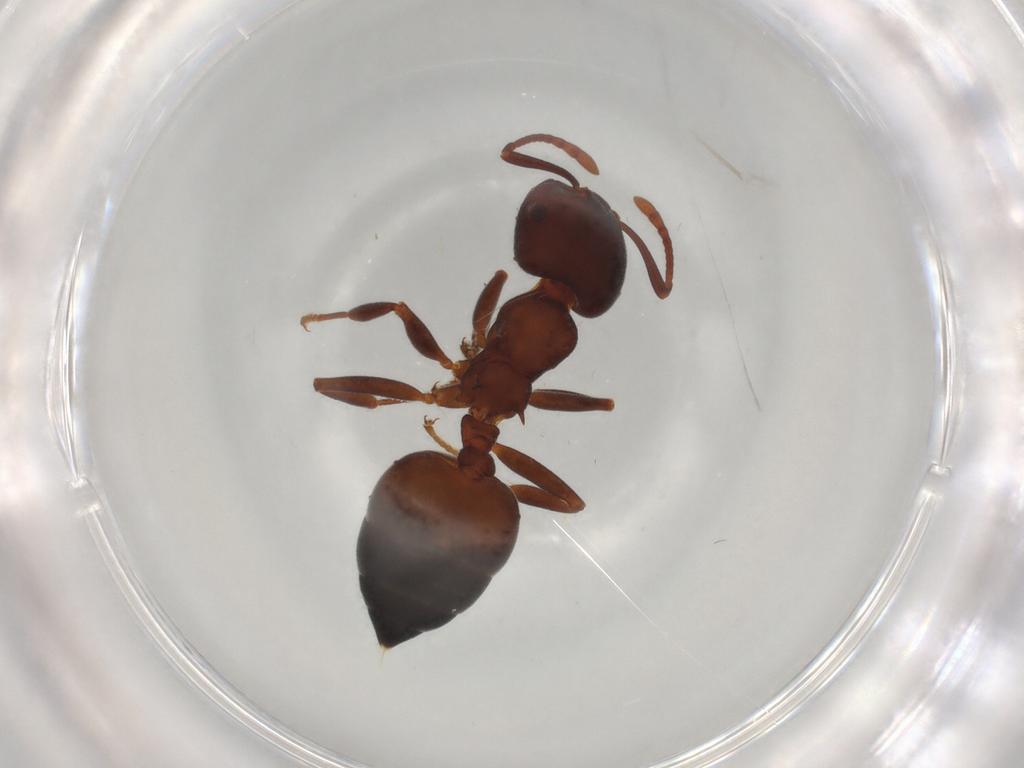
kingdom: Animalia
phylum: Arthropoda
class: Insecta
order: Hymenoptera
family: Formicidae
